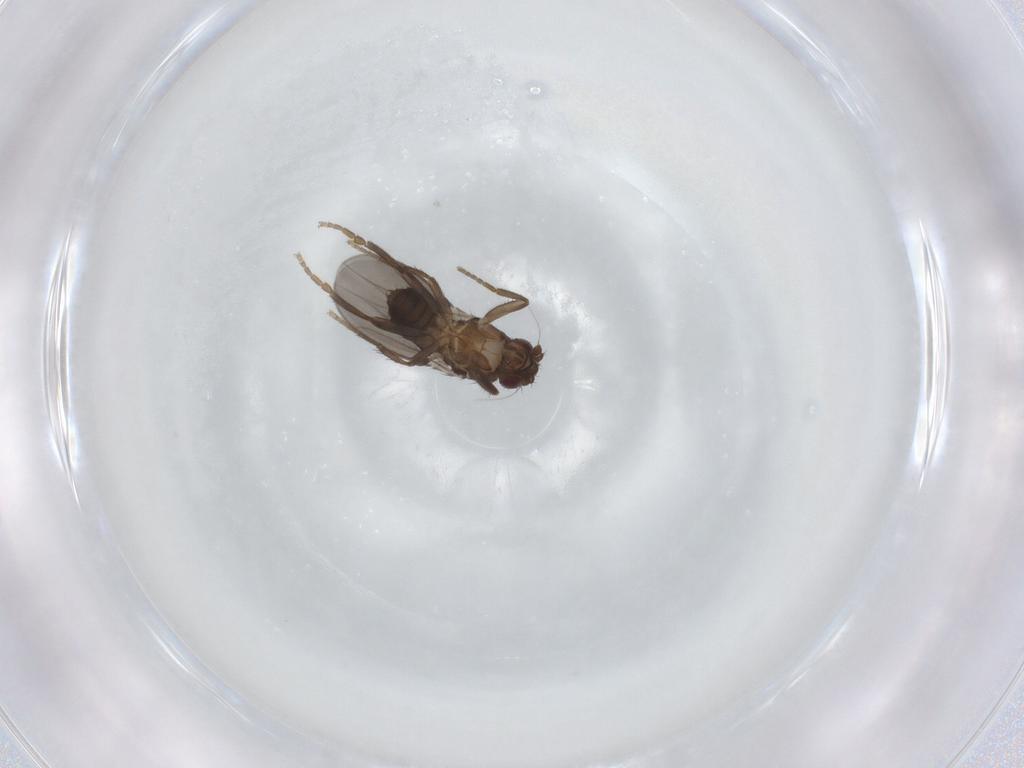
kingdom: Animalia
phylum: Arthropoda
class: Insecta
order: Diptera
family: Sphaeroceridae
